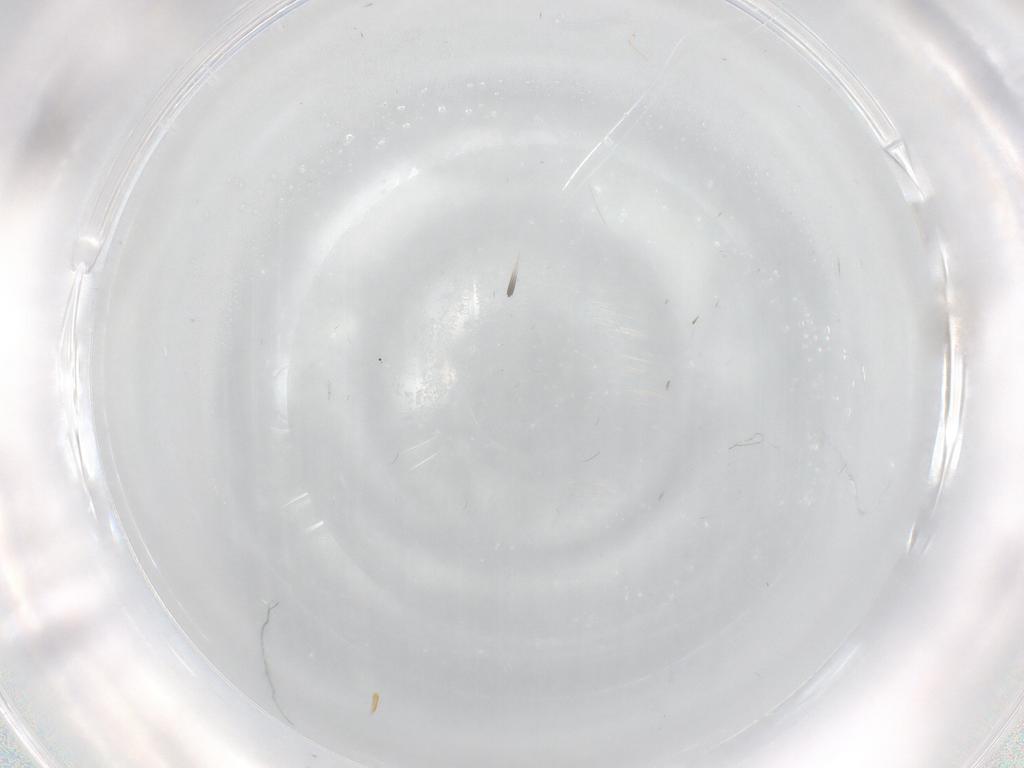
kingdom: Animalia
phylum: Arthropoda
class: Insecta
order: Diptera
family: Cecidomyiidae
